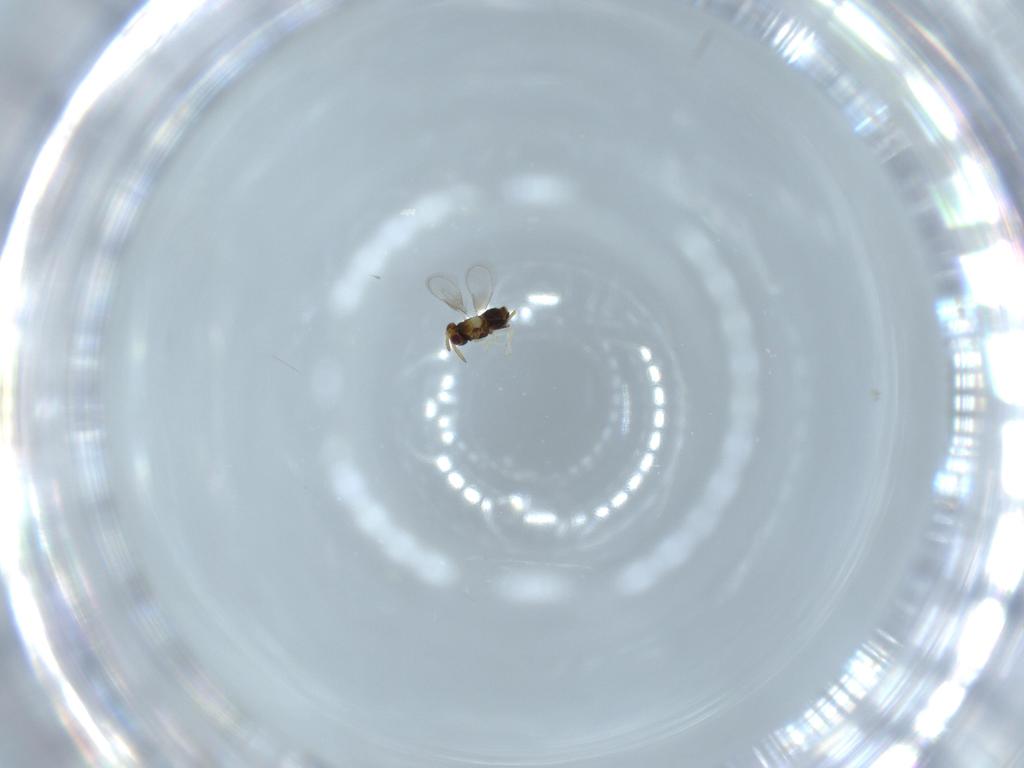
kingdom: Animalia
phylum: Arthropoda
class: Insecta
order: Hymenoptera
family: Aphelinidae
